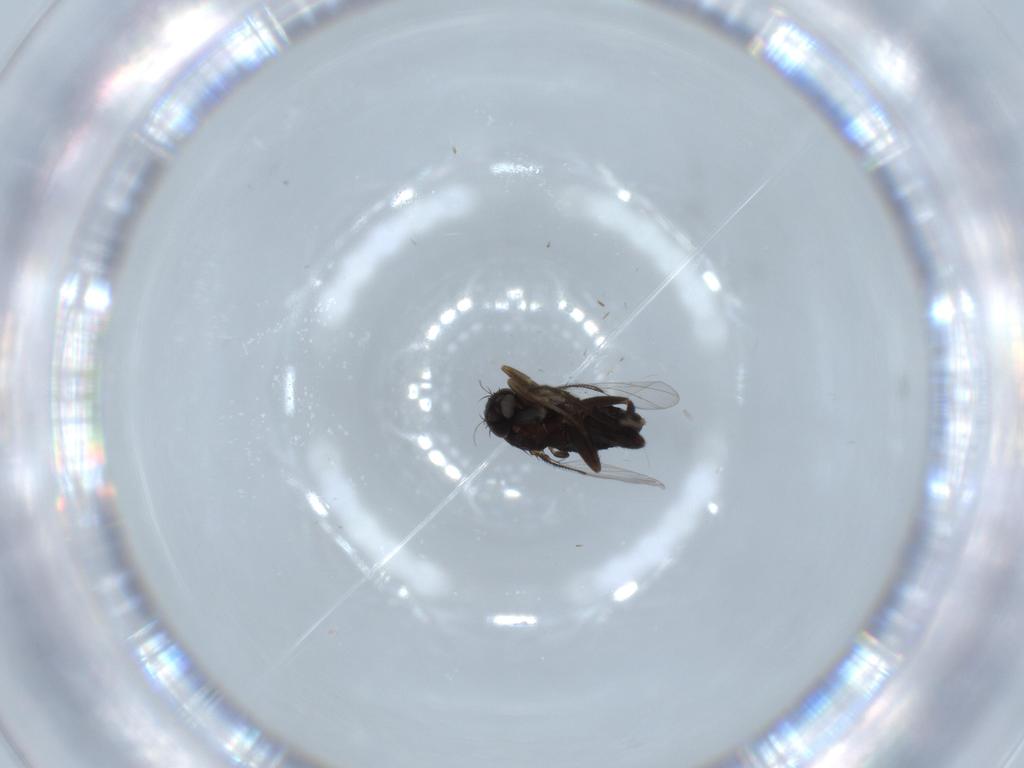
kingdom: Animalia
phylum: Arthropoda
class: Insecta
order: Diptera
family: Phoridae
